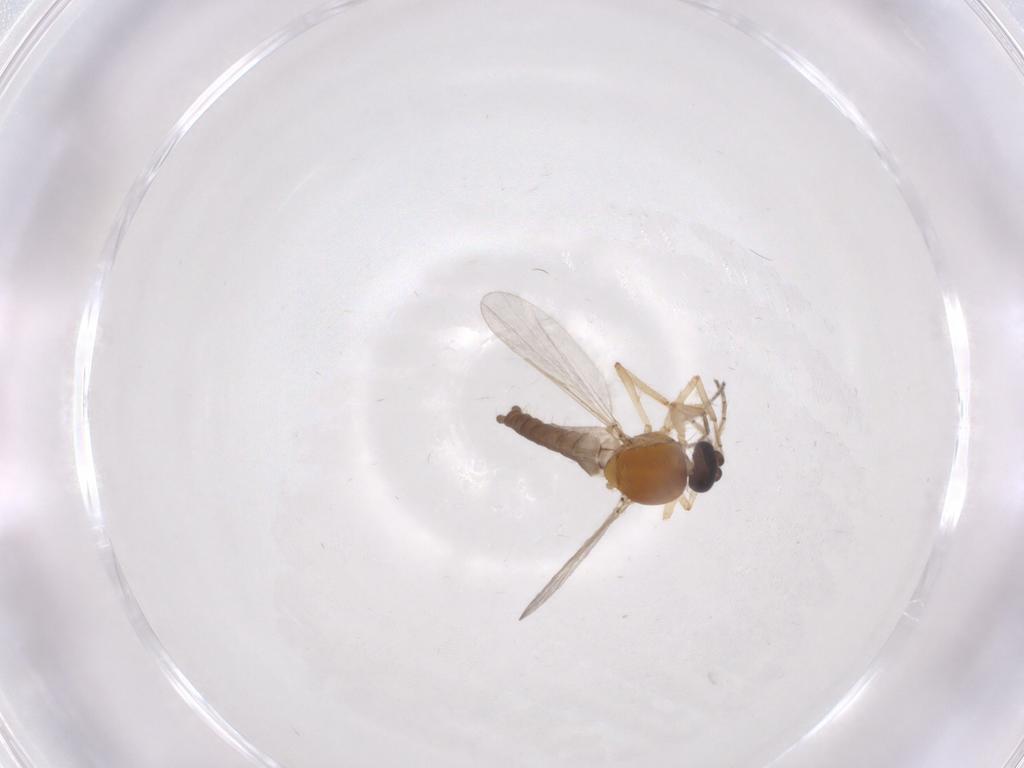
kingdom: Animalia
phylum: Arthropoda
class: Insecta
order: Diptera
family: Ceratopogonidae
